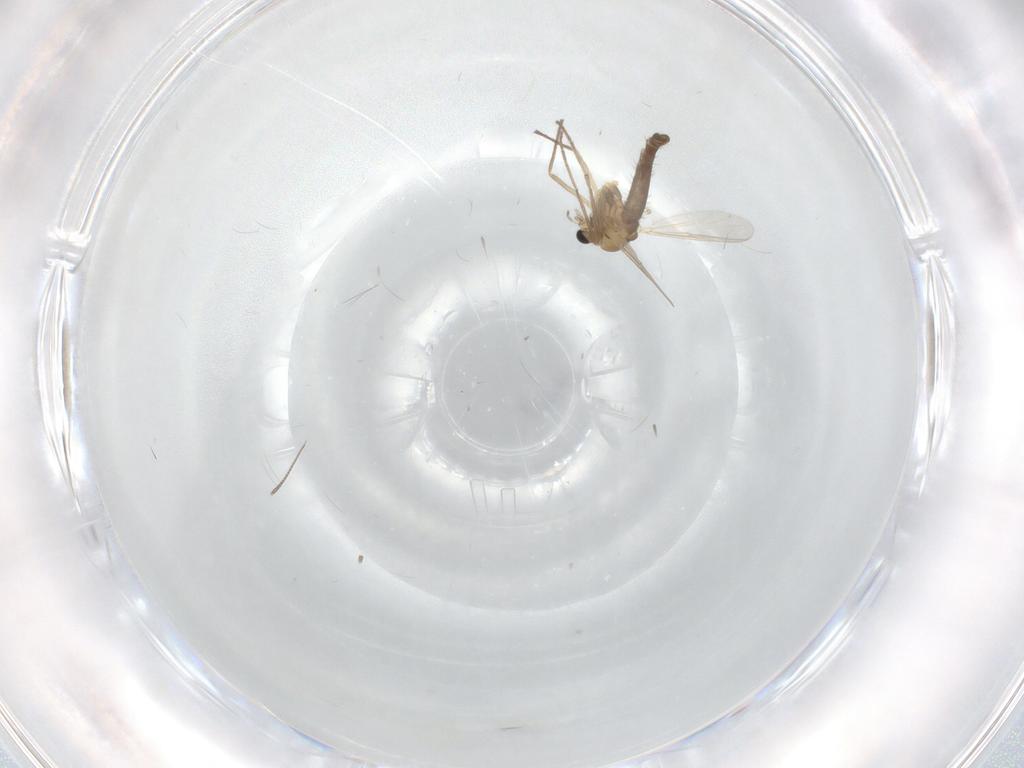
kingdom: Animalia
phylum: Arthropoda
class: Insecta
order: Diptera
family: Chironomidae
